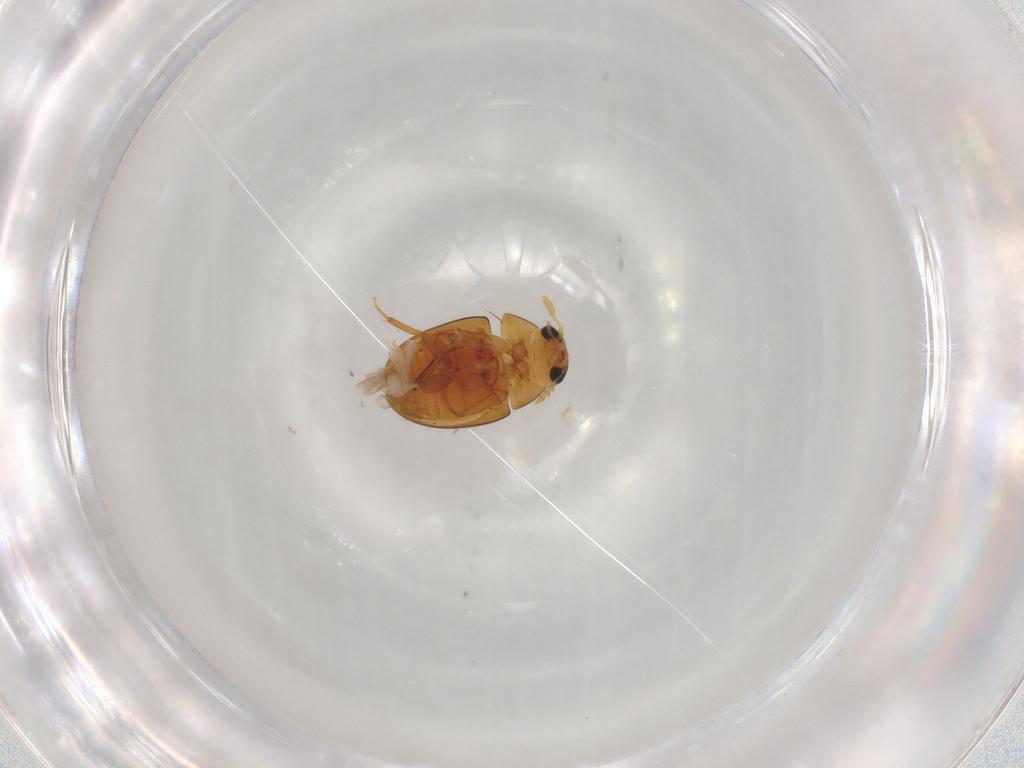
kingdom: Animalia
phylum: Arthropoda
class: Insecta
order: Coleoptera
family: Phalacridae
